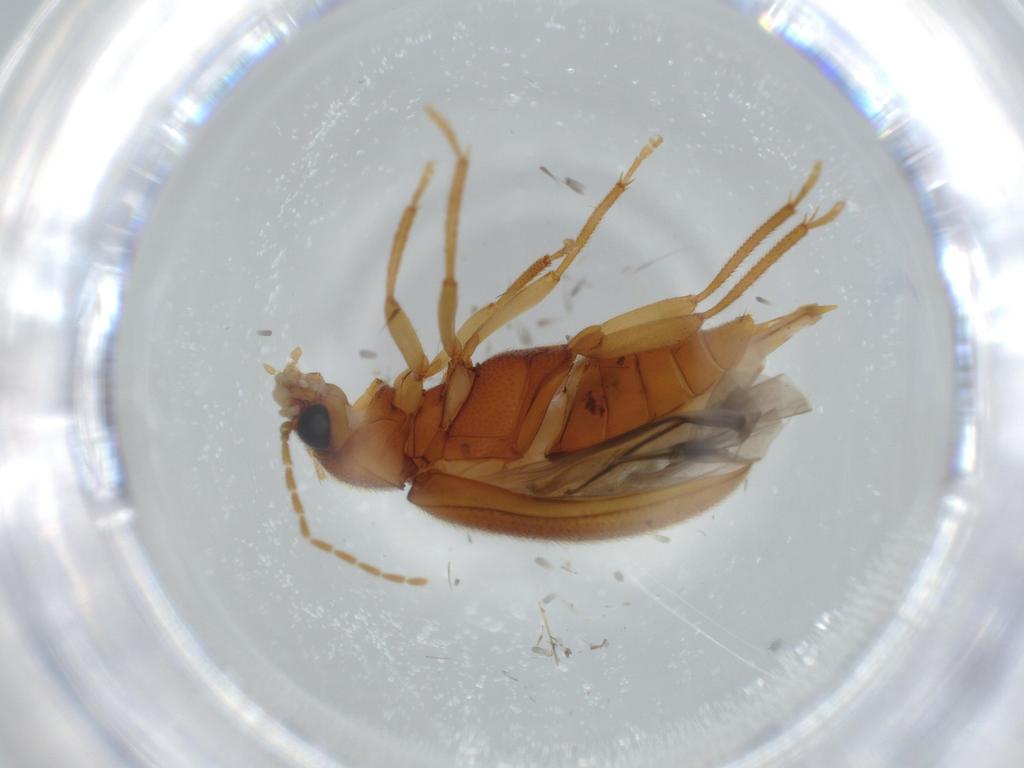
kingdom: Animalia
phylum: Arthropoda
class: Insecta
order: Coleoptera
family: Ptilodactylidae
